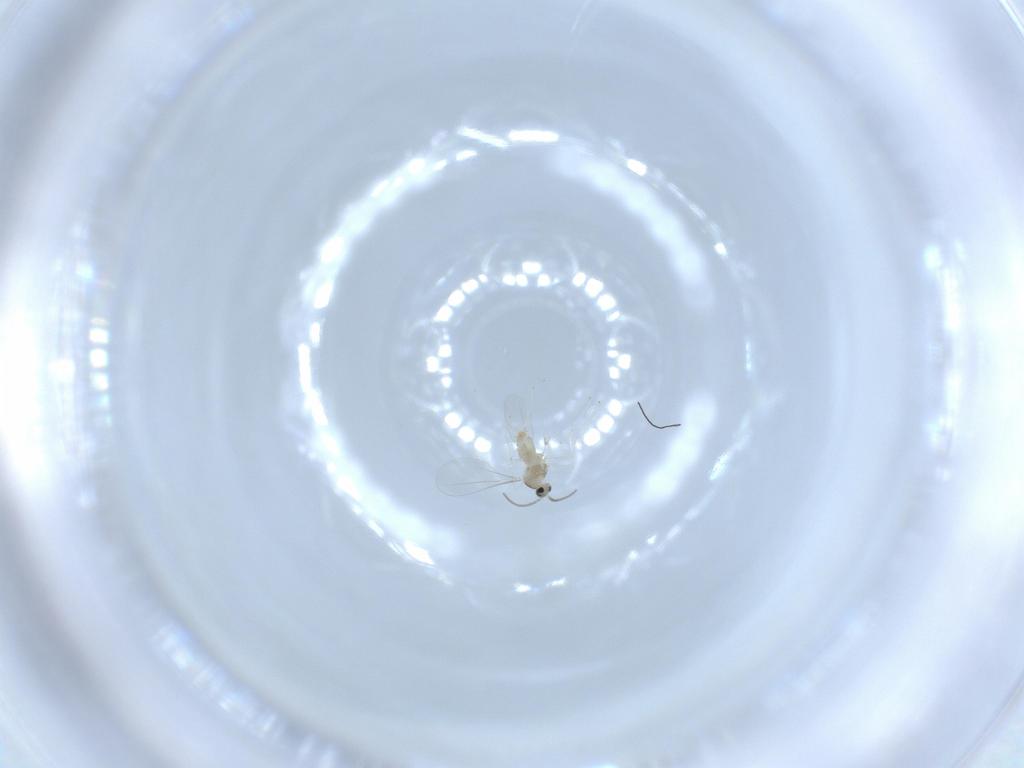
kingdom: Animalia
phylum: Arthropoda
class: Insecta
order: Diptera
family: Cecidomyiidae
